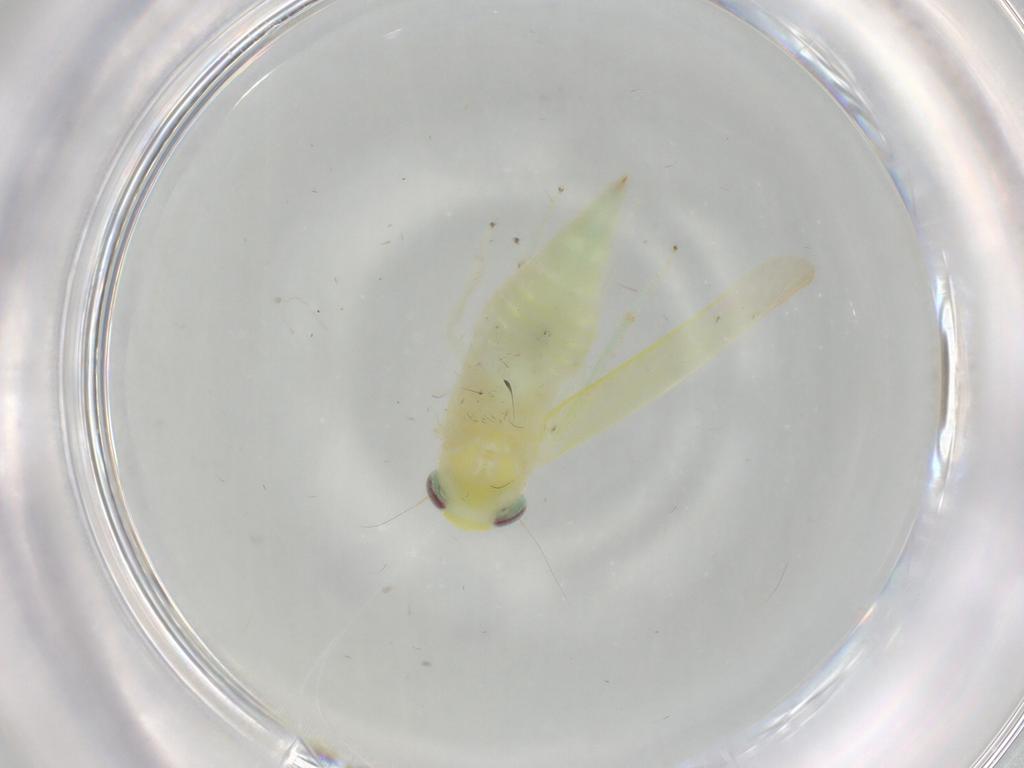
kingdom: Animalia
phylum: Arthropoda
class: Insecta
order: Hemiptera
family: Cicadellidae
